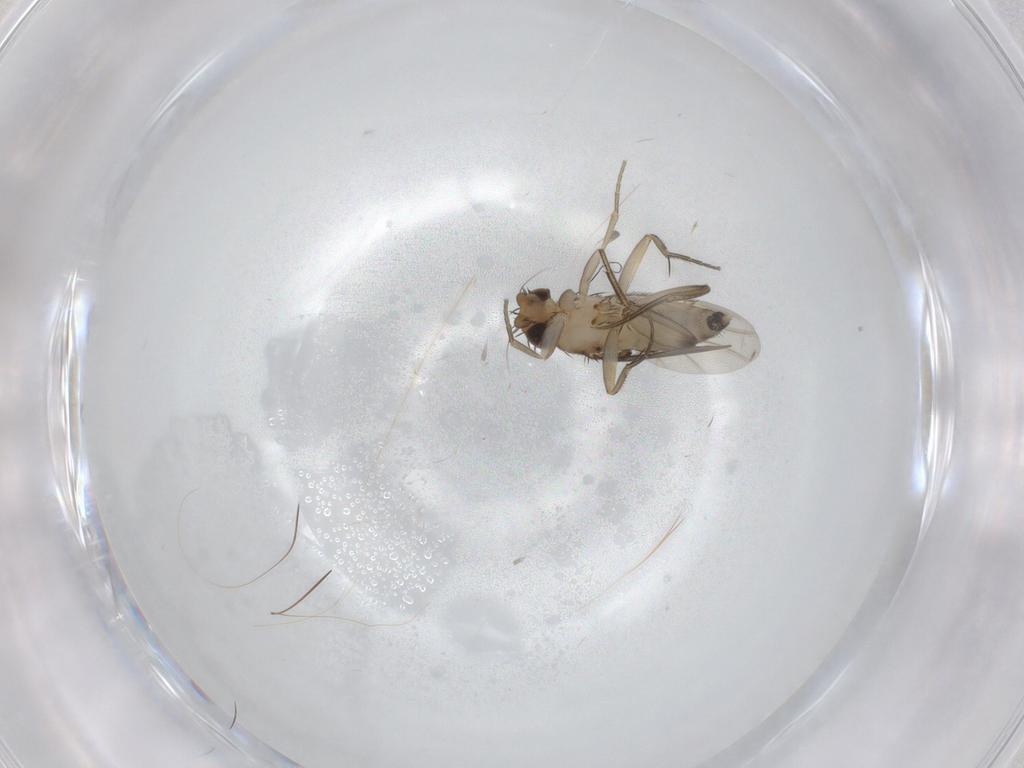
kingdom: Animalia
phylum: Arthropoda
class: Insecta
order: Diptera
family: Phoridae
